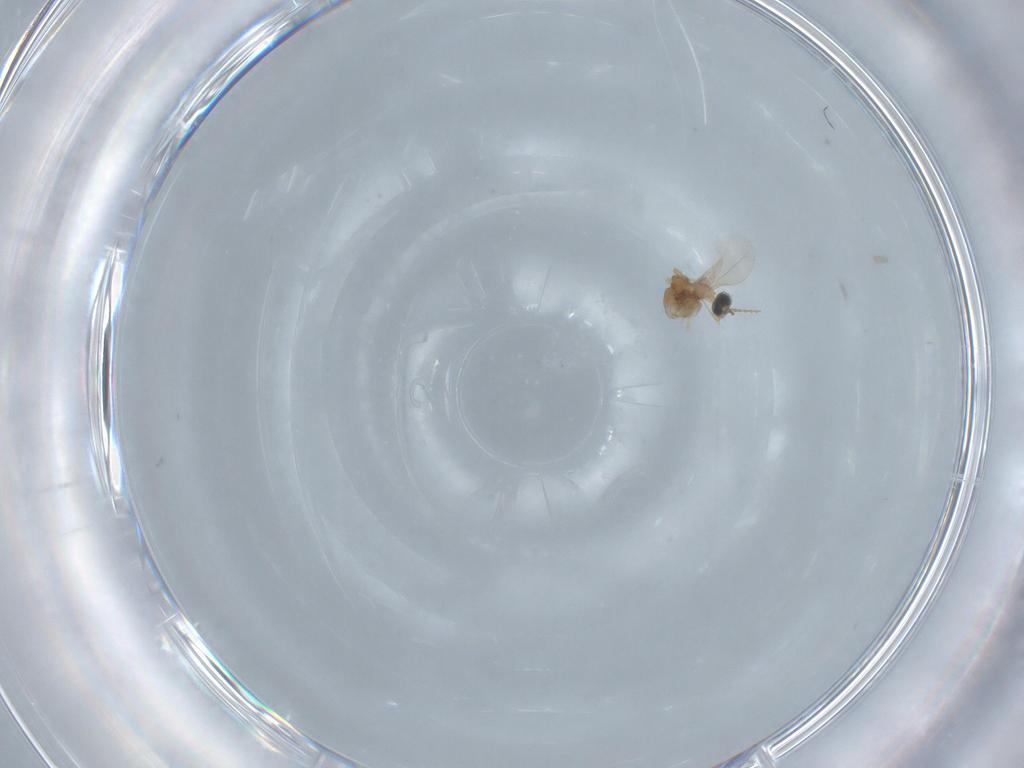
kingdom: Animalia
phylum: Arthropoda
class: Insecta
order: Diptera
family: Cecidomyiidae
